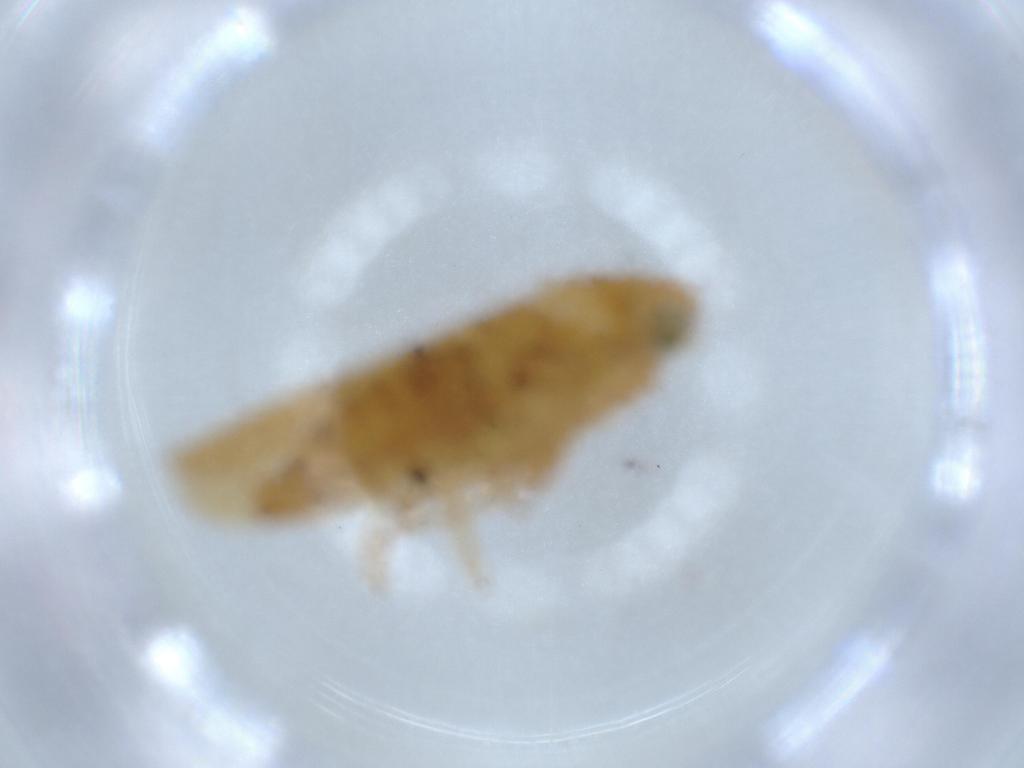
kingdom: Animalia
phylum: Arthropoda
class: Insecta
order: Hemiptera
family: Cicadellidae
